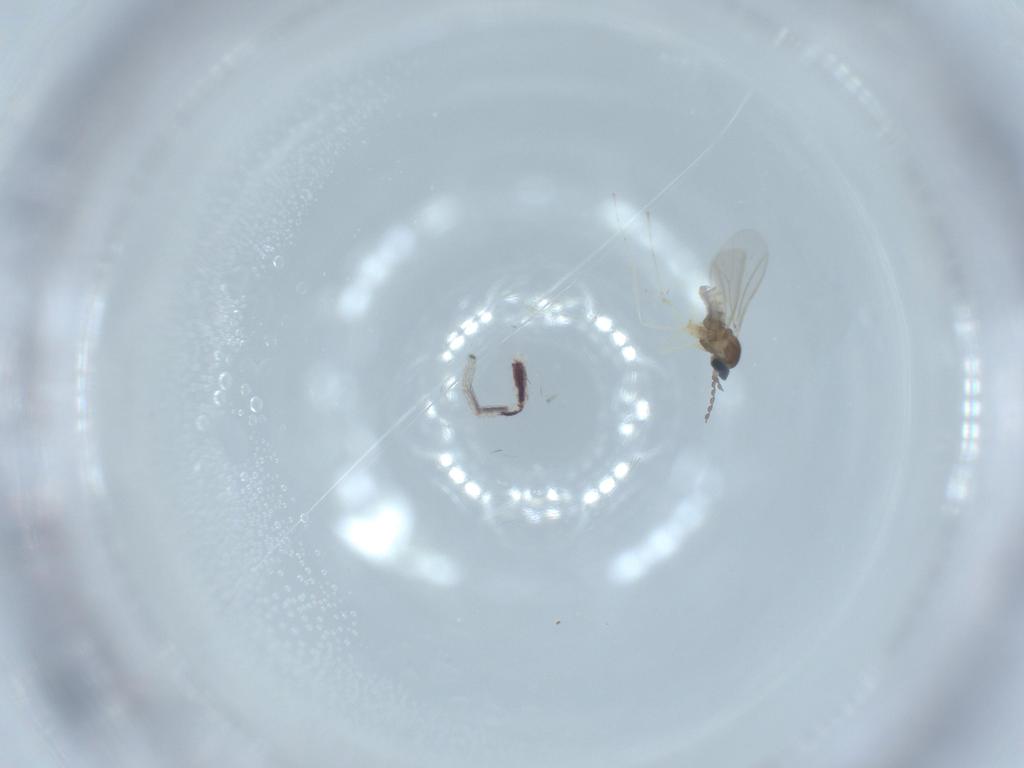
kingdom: Animalia
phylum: Arthropoda
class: Insecta
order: Diptera
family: Cecidomyiidae
